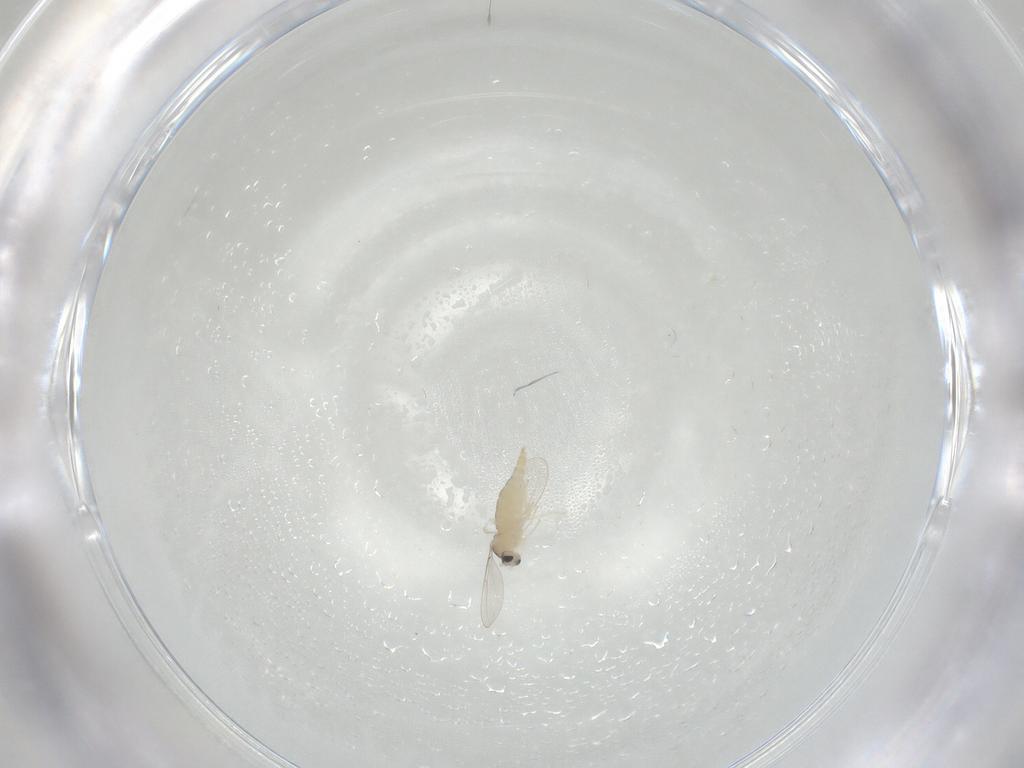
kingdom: Animalia
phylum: Arthropoda
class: Insecta
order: Diptera
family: Cecidomyiidae
